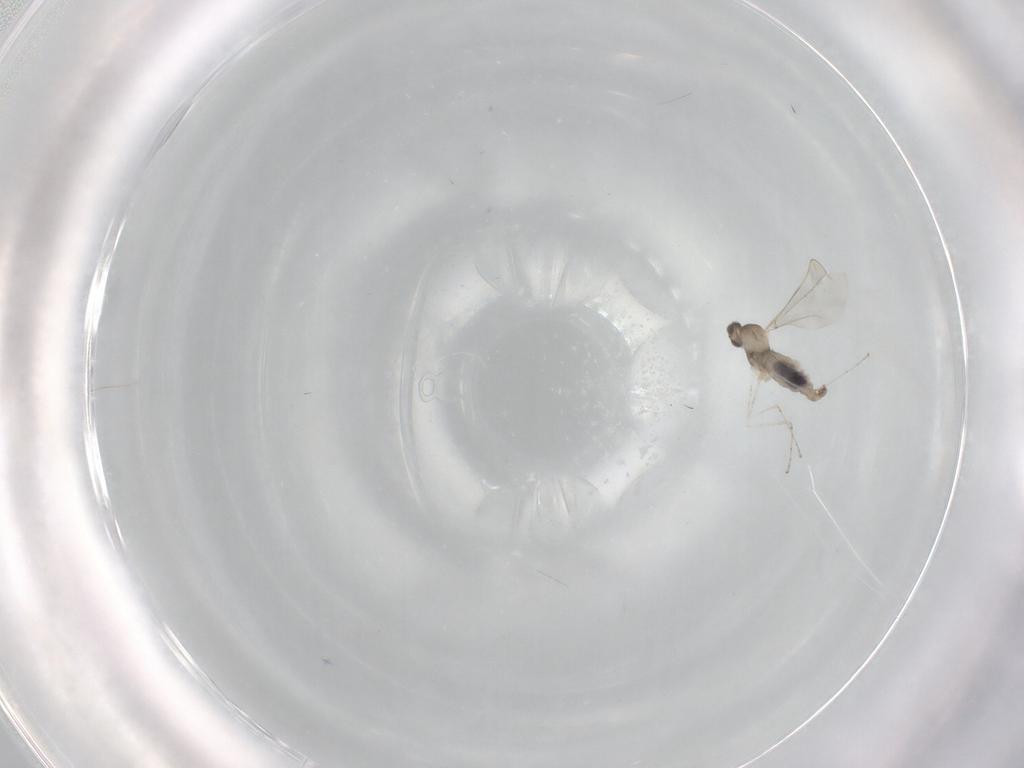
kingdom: Animalia
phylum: Arthropoda
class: Insecta
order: Diptera
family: Cecidomyiidae
